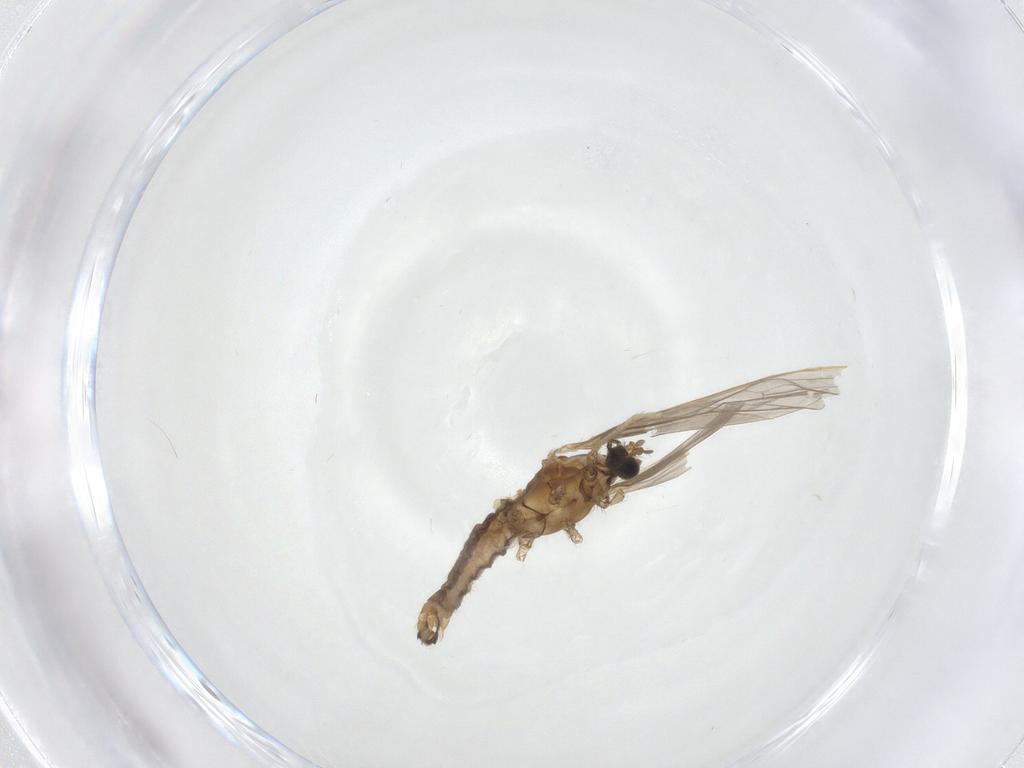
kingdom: Animalia
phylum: Arthropoda
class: Insecta
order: Diptera
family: Limoniidae
